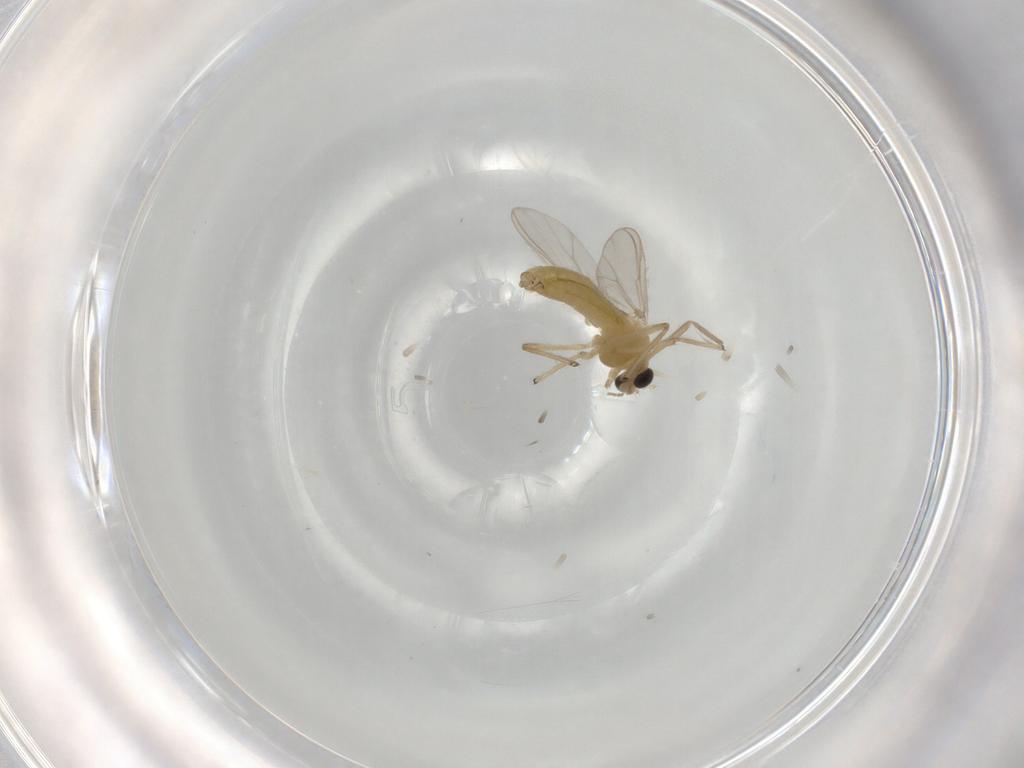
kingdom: Animalia
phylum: Arthropoda
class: Insecta
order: Diptera
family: Chironomidae
